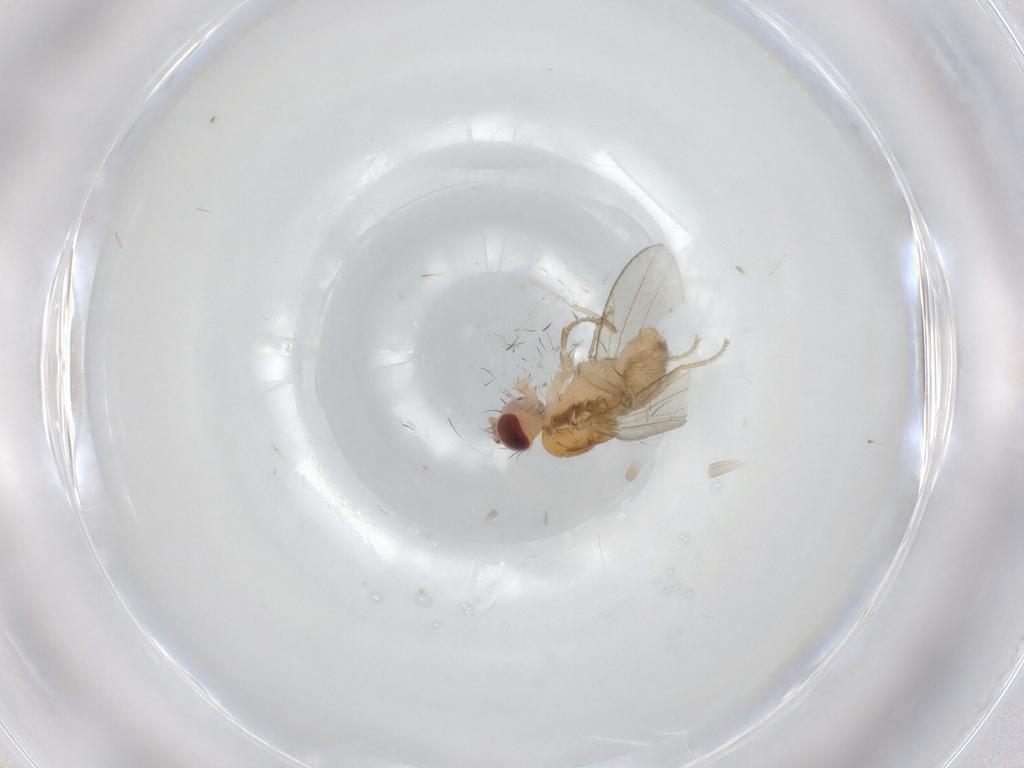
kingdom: Animalia
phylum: Arthropoda
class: Insecta
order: Diptera
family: Drosophilidae
